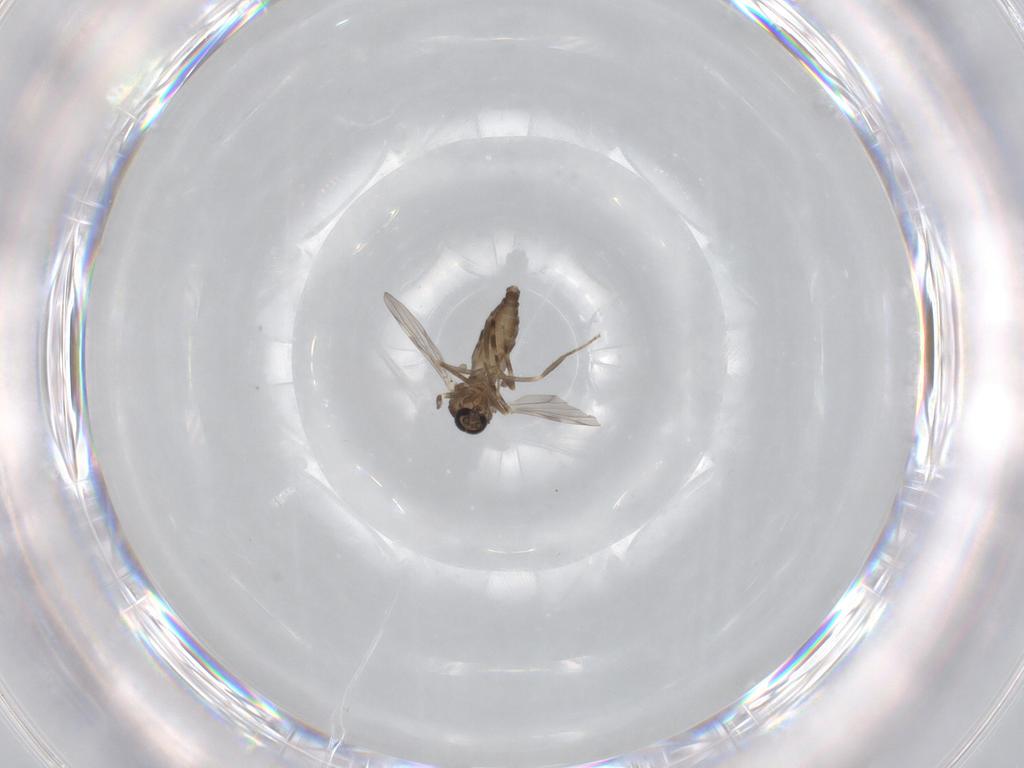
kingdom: Animalia
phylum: Arthropoda
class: Insecta
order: Diptera
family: Ceratopogonidae
